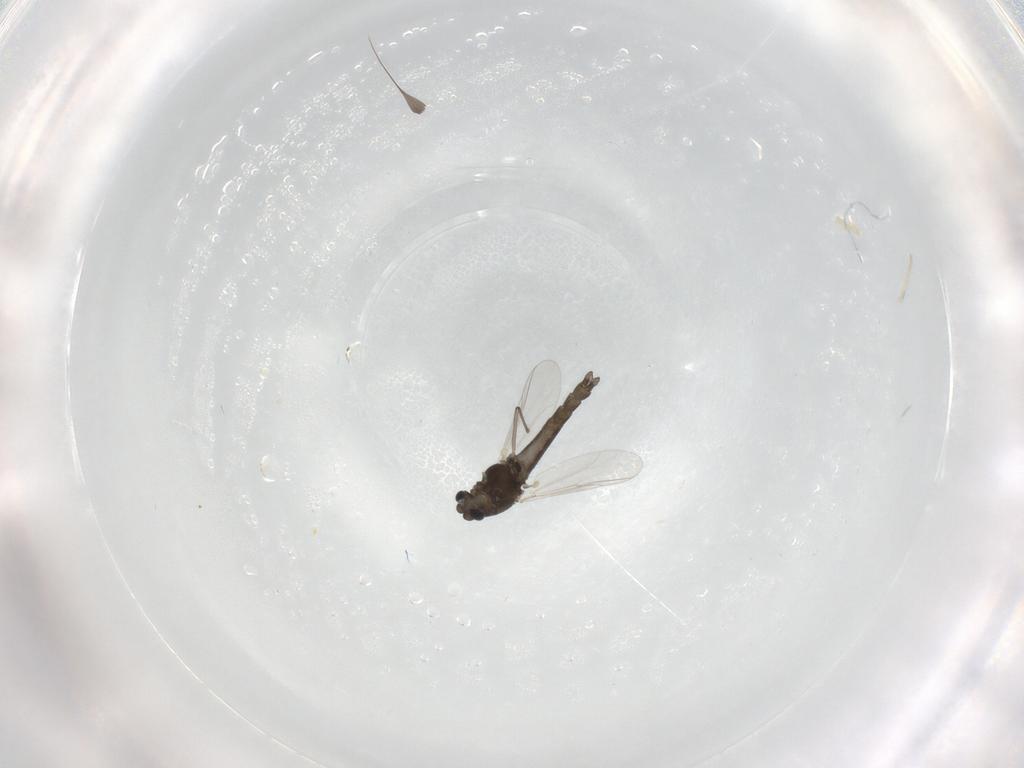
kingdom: Animalia
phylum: Arthropoda
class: Insecta
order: Diptera
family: Chironomidae
